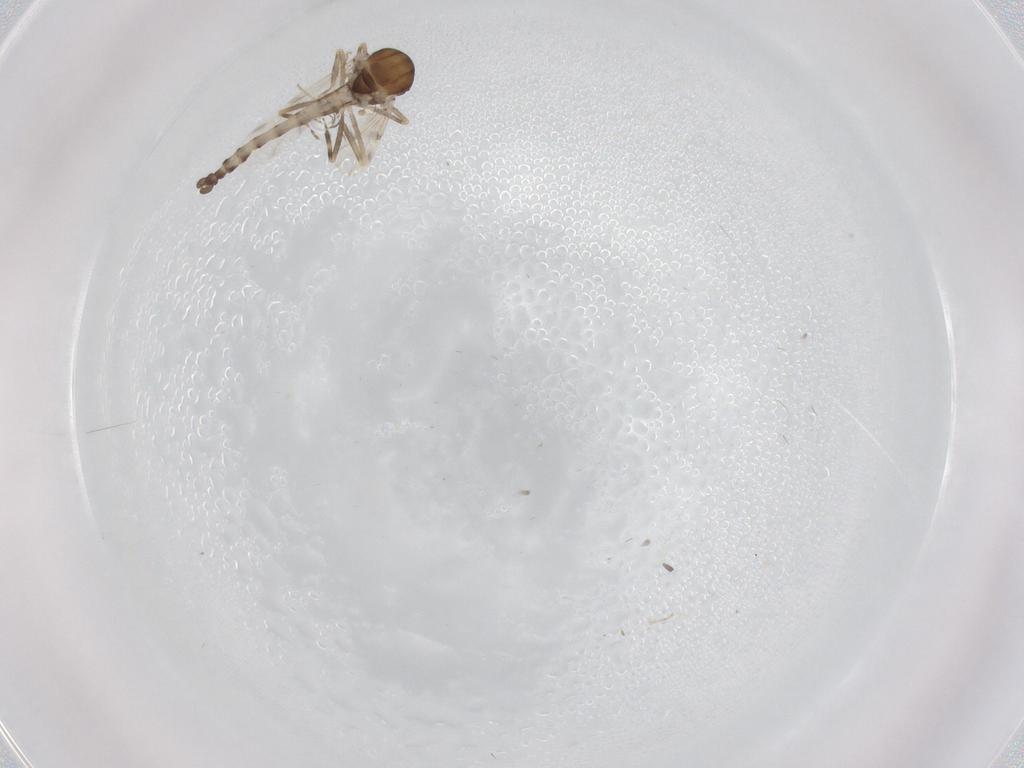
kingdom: Animalia
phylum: Arthropoda
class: Insecta
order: Diptera
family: Ceratopogonidae
